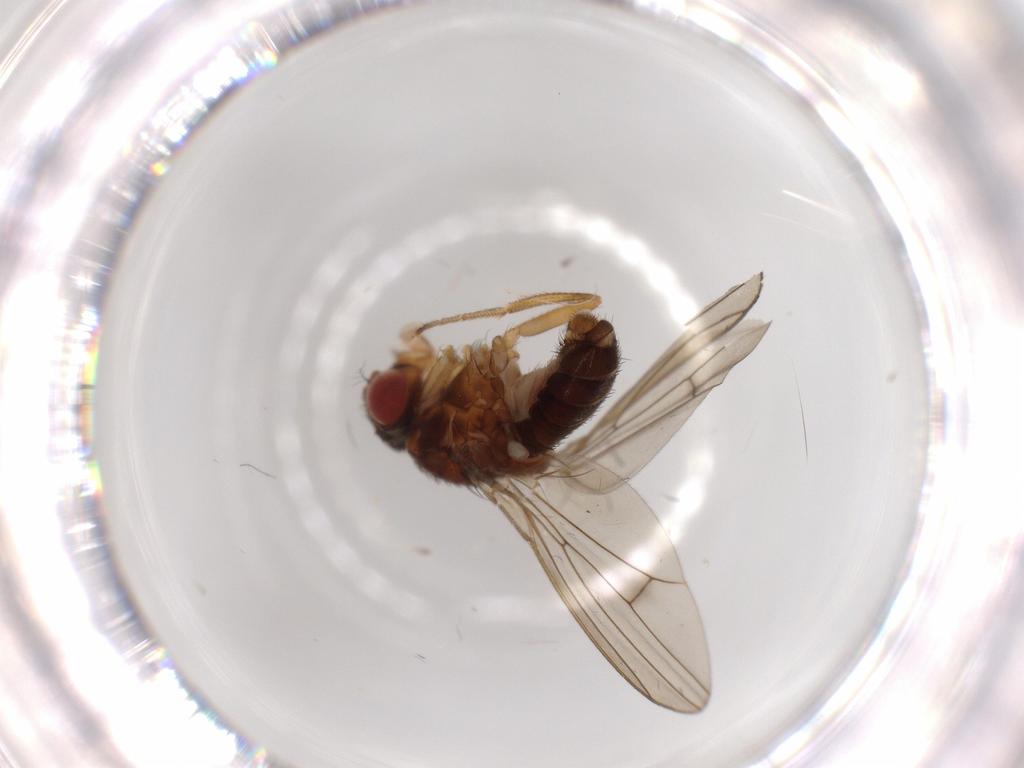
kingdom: Animalia
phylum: Arthropoda
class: Insecta
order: Diptera
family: Drosophilidae
